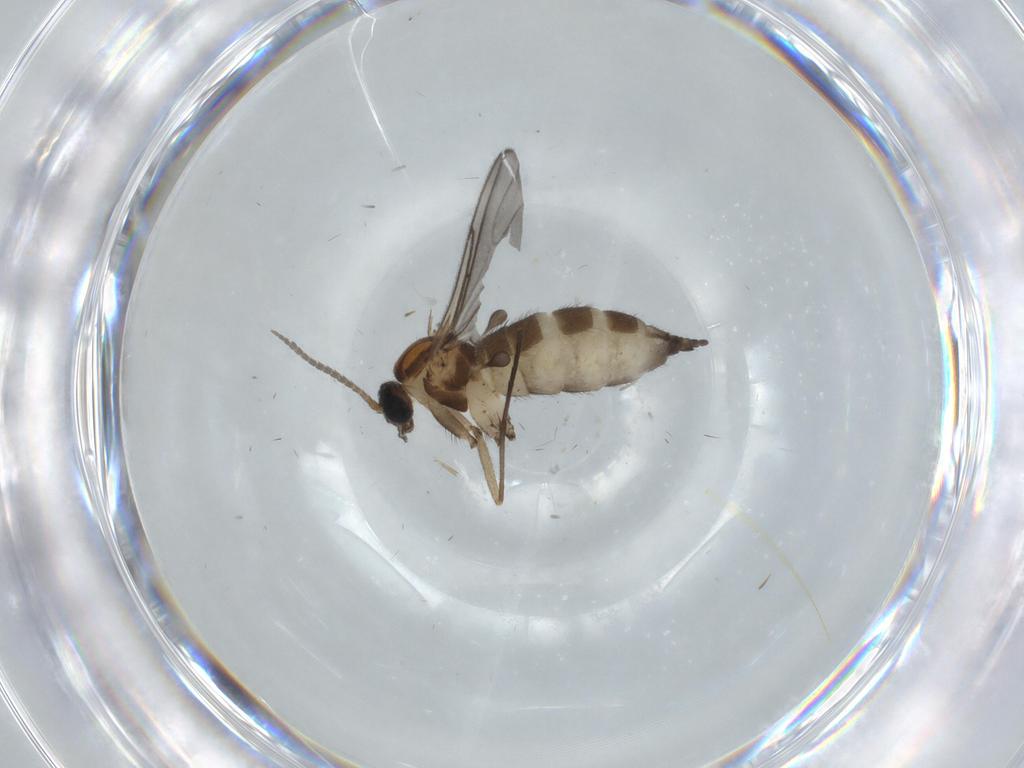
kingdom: Animalia
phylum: Arthropoda
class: Insecta
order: Diptera
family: Sciaridae
